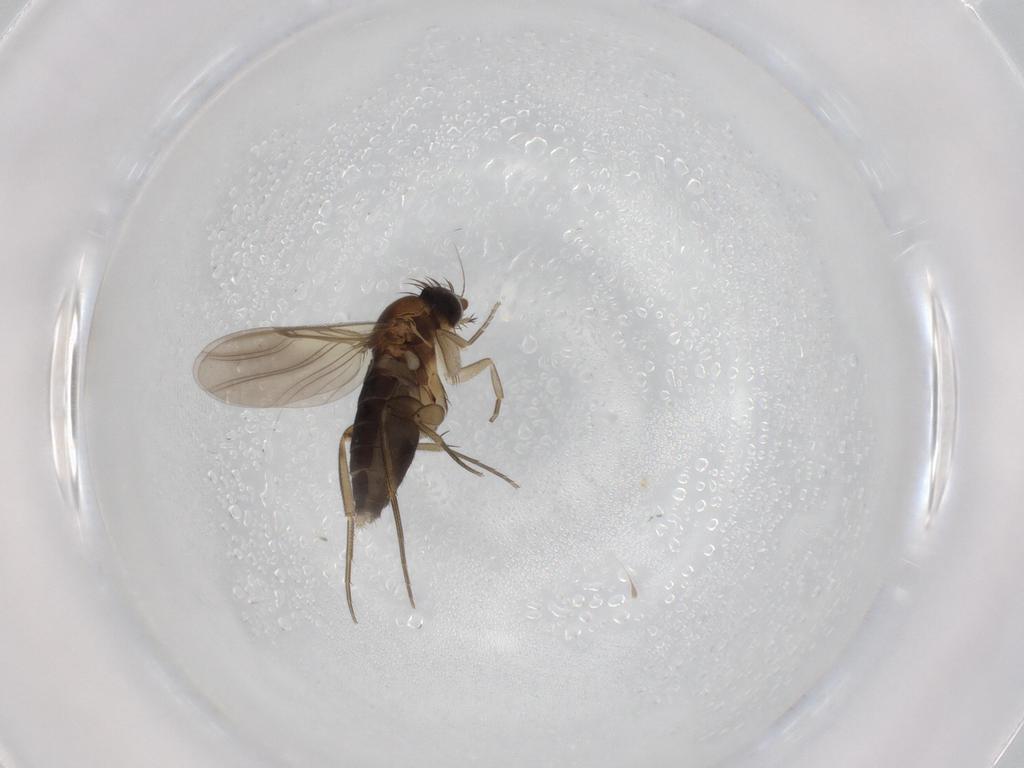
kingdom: Animalia
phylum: Arthropoda
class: Insecta
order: Diptera
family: Phoridae
